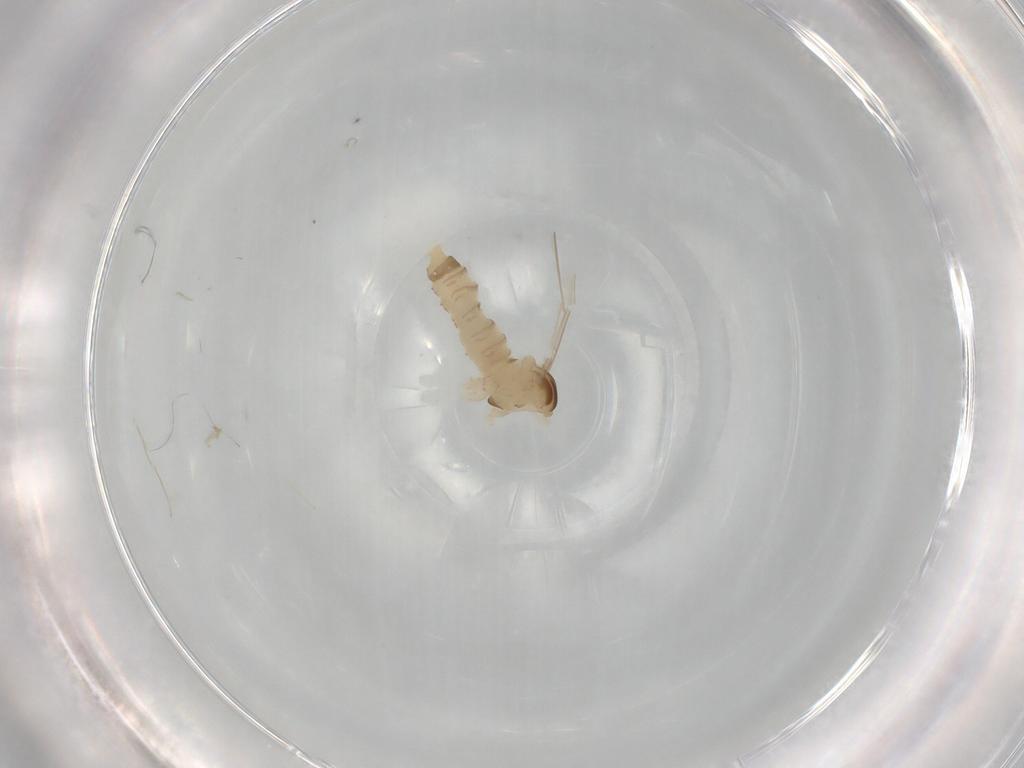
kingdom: Animalia
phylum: Arthropoda
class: Insecta
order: Diptera
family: Cecidomyiidae
